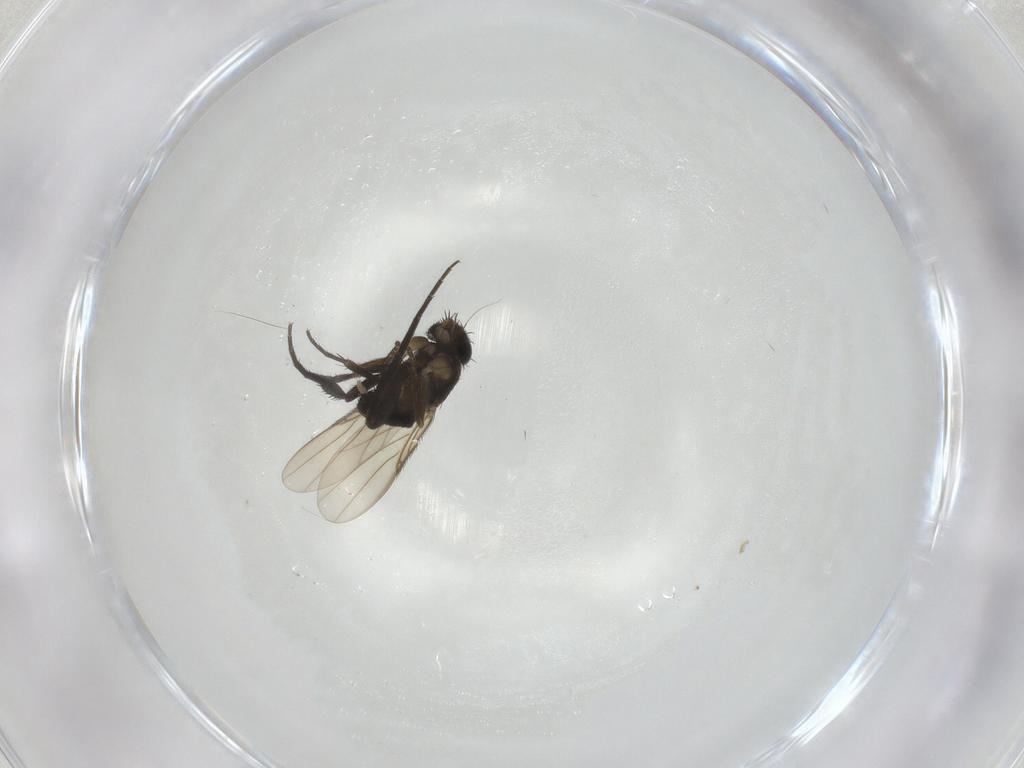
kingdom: Animalia
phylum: Arthropoda
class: Insecta
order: Diptera
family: Phoridae
